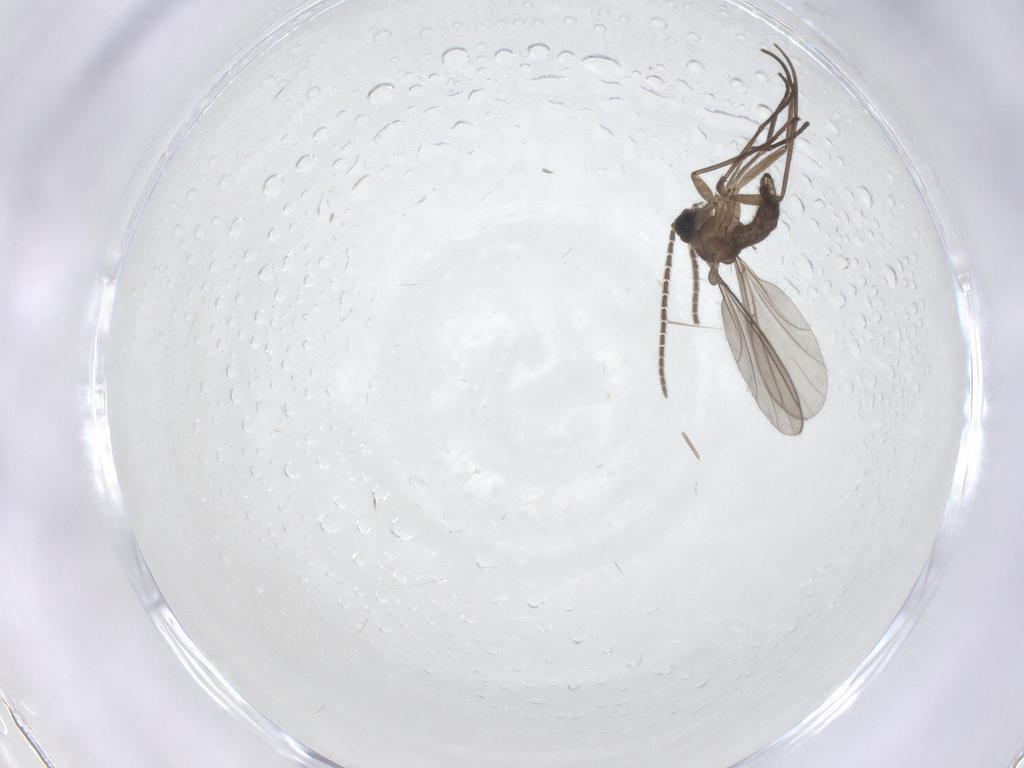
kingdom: Animalia
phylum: Arthropoda
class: Insecta
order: Diptera
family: Sciaridae
